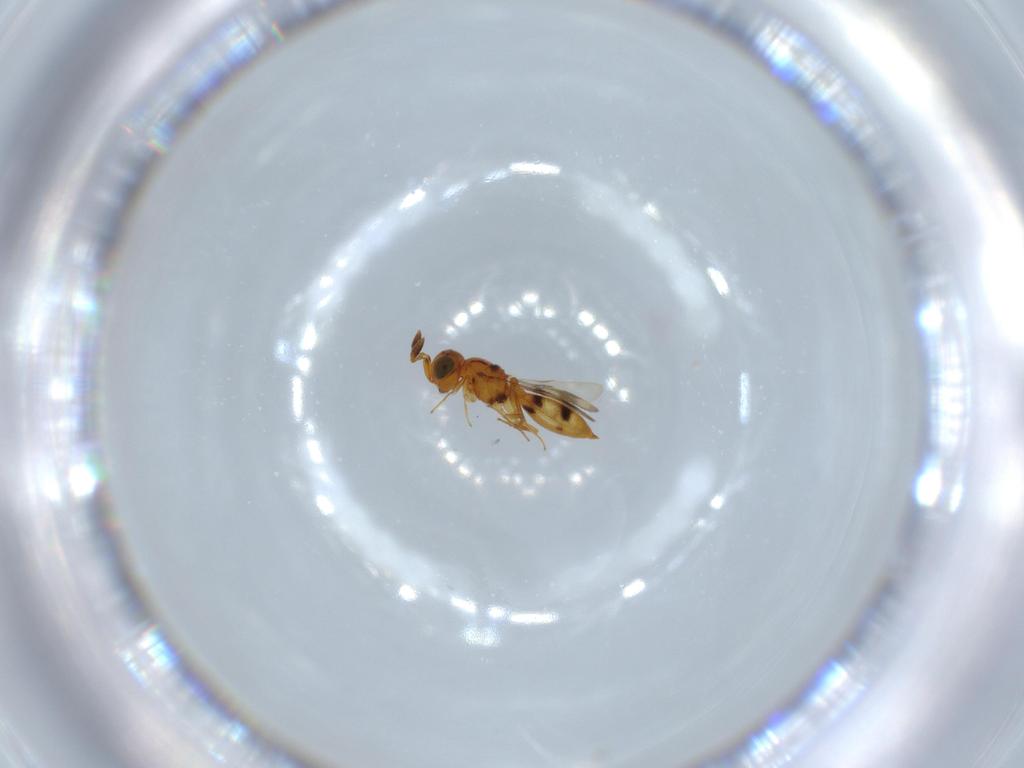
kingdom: Animalia
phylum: Arthropoda
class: Insecta
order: Hymenoptera
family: Scelionidae
